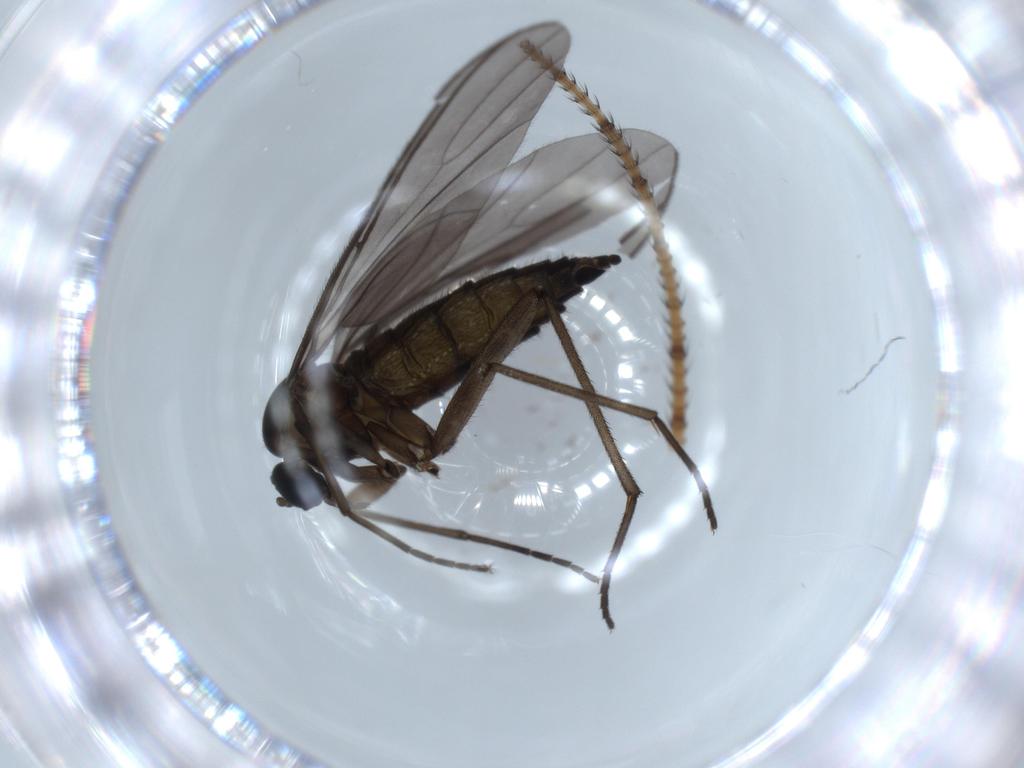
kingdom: Animalia
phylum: Arthropoda
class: Insecta
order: Diptera
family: Sciaridae
